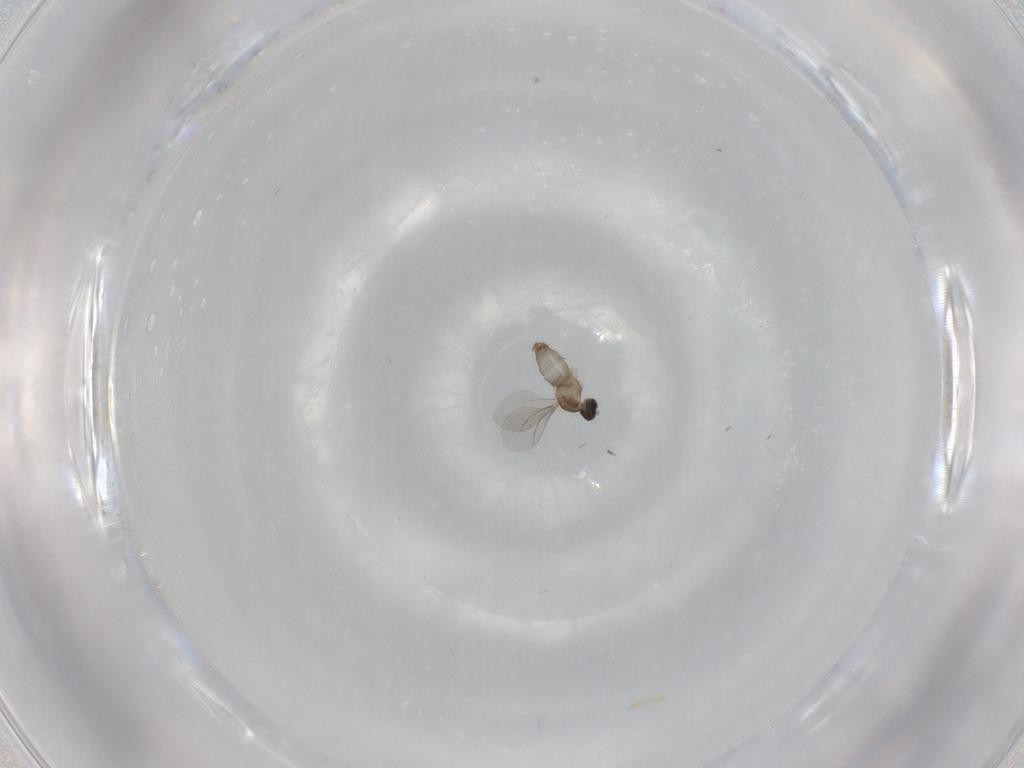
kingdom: Animalia
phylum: Arthropoda
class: Insecta
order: Diptera
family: Cecidomyiidae
